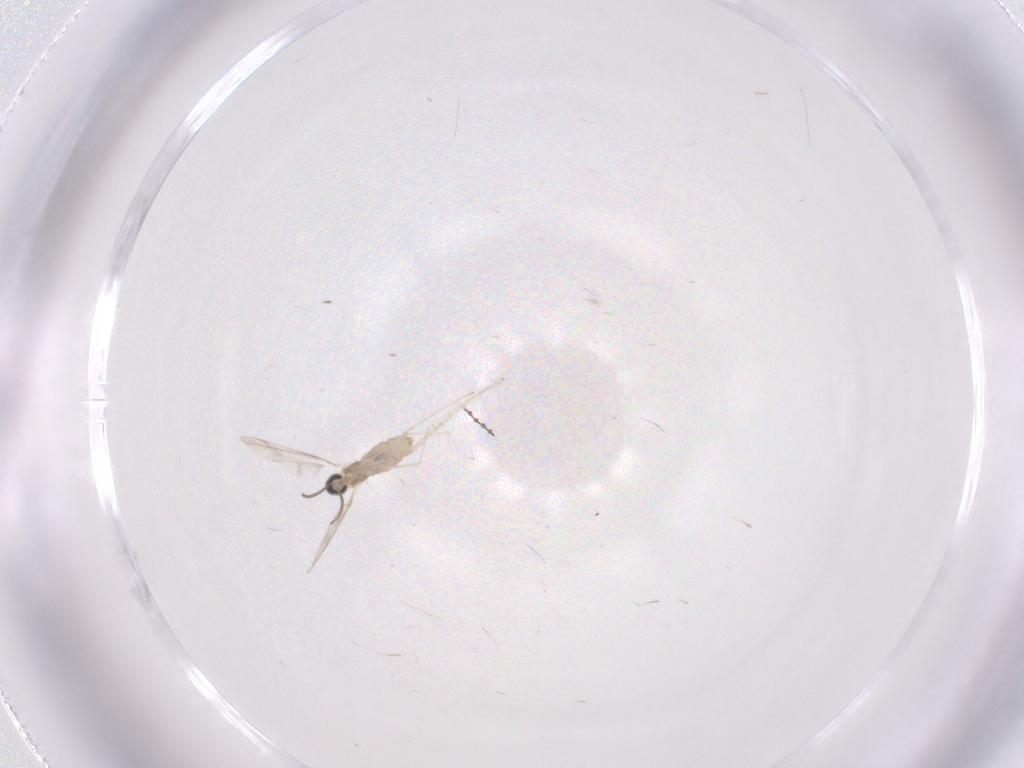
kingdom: Animalia
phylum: Arthropoda
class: Insecta
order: Diptera
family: Cecidomyiidae
